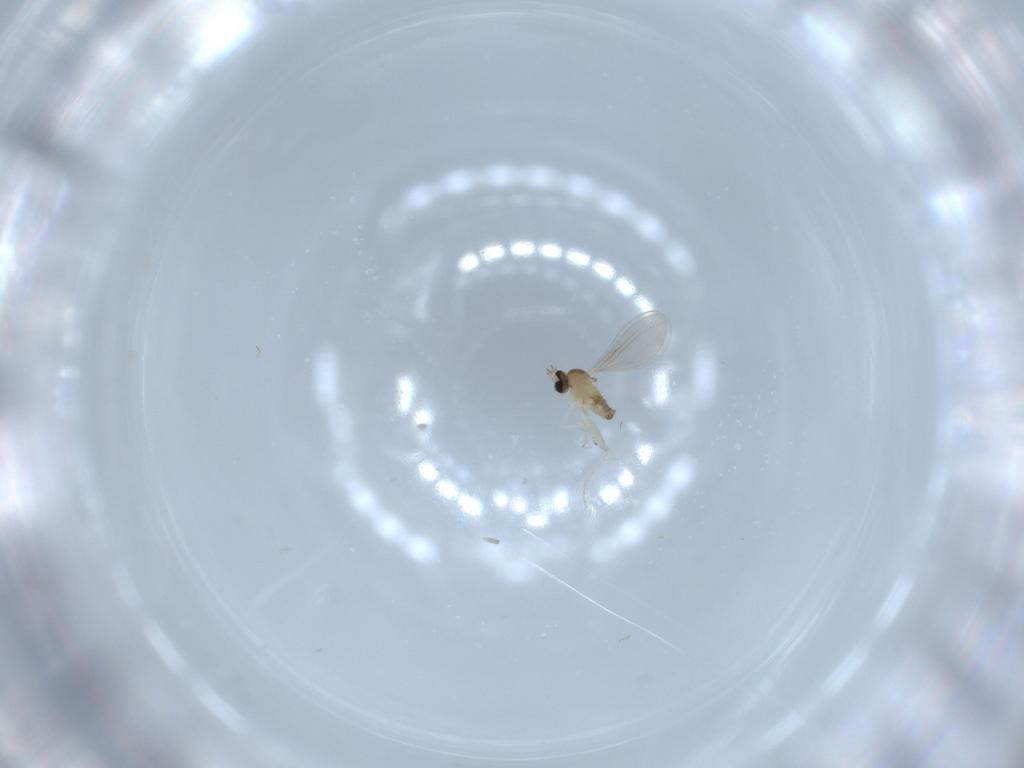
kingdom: Animalia
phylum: Arthropoda
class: Insecta
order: Diptera
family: Cecidomyiidae
